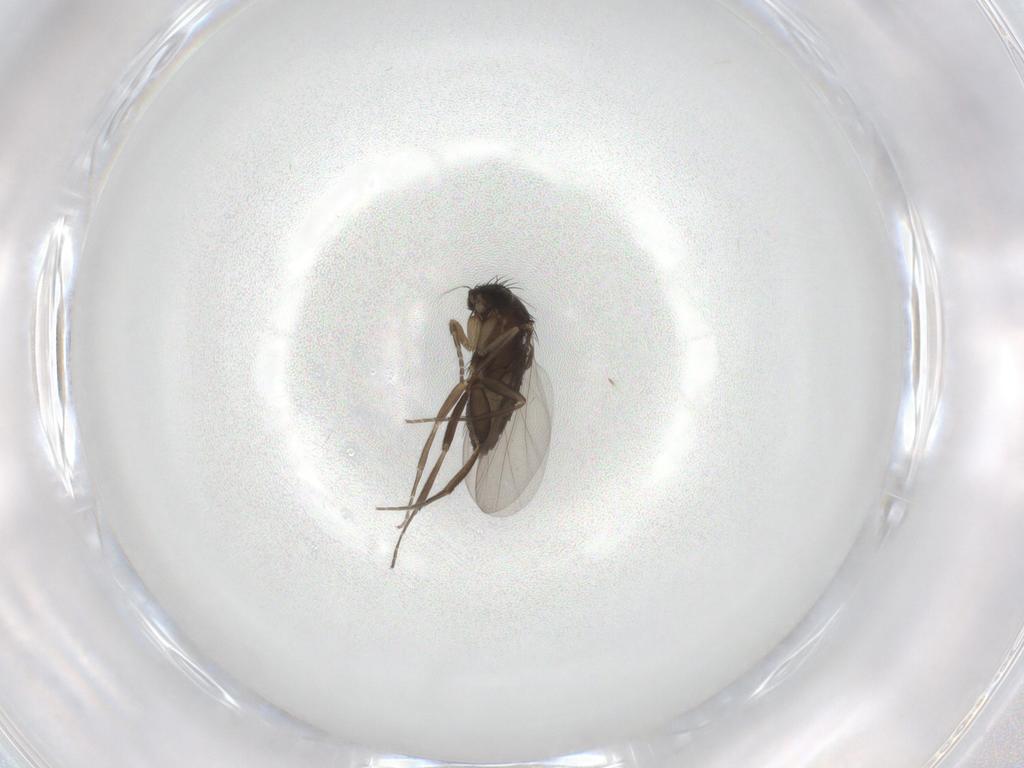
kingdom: Animalia
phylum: Arthropoda
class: Insecta
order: Diptera
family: Phoridae
